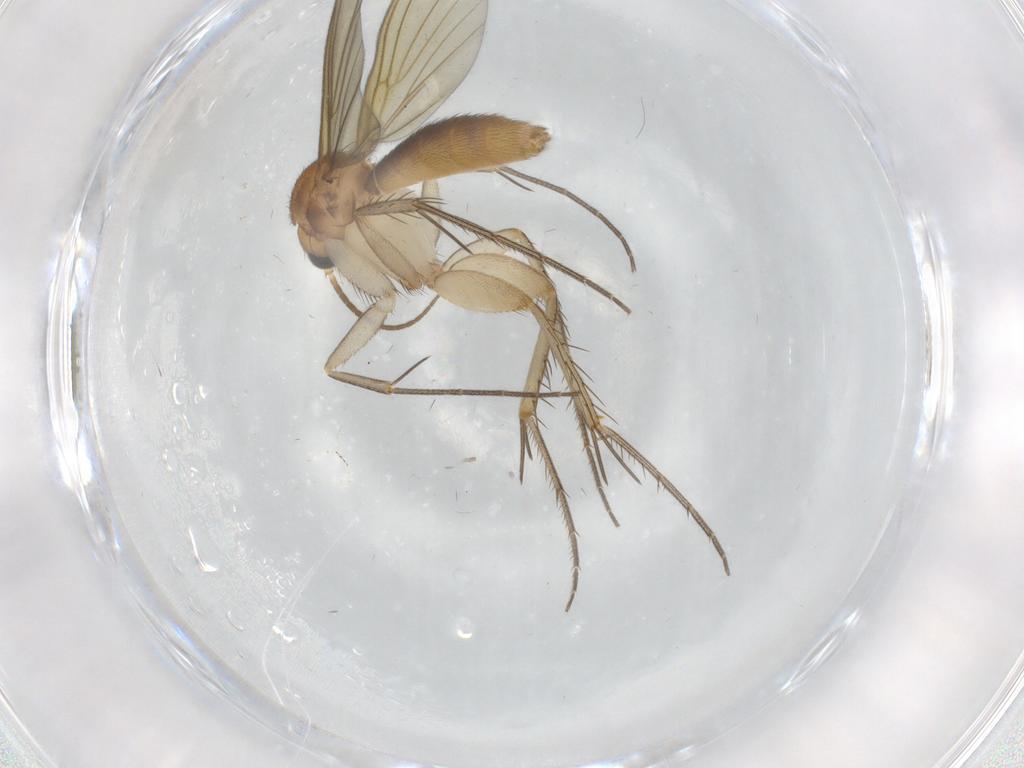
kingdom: Animalia
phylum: Arthropoda
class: Insecta
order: Diptera
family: Mycetophilidae
